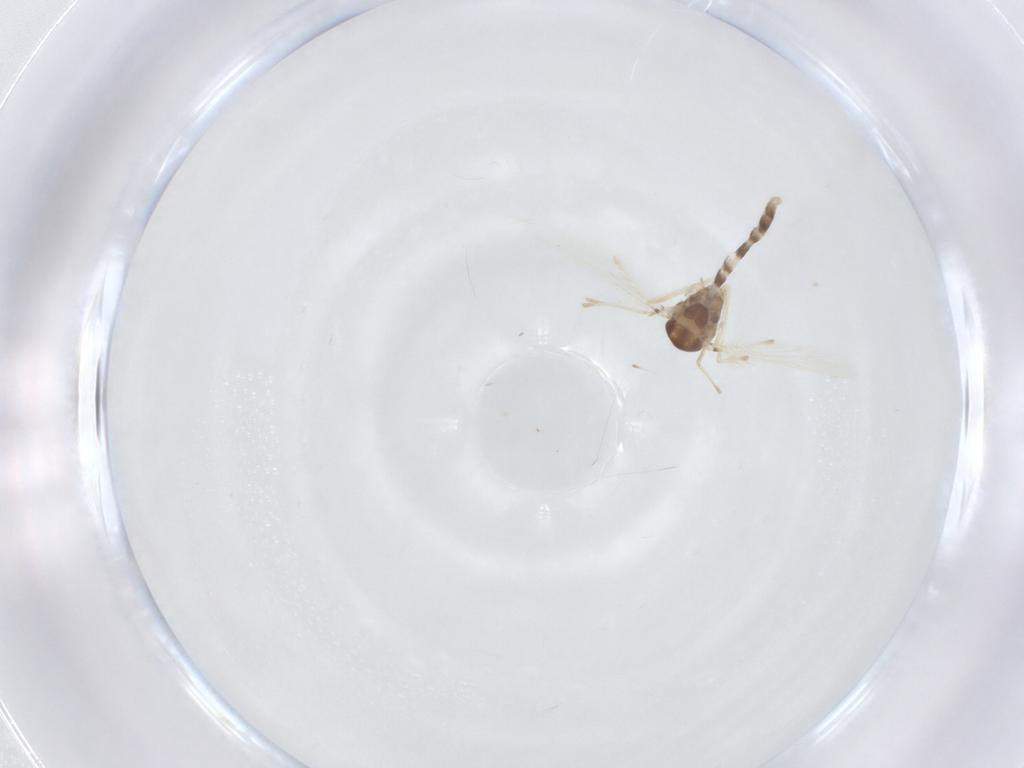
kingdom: Animalia
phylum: Arthropoda
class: Insecta
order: Diptera
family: Chironomidae
